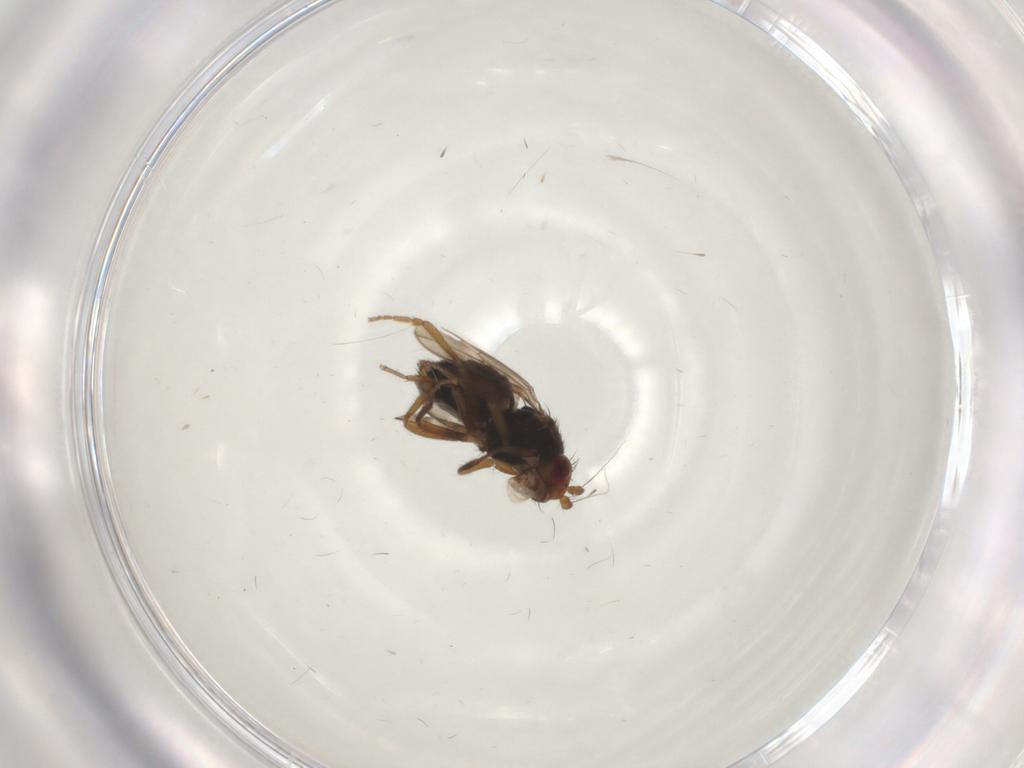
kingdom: Animalia
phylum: Arthropoda
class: Insecta
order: Diptera
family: Sphaeroceridae
